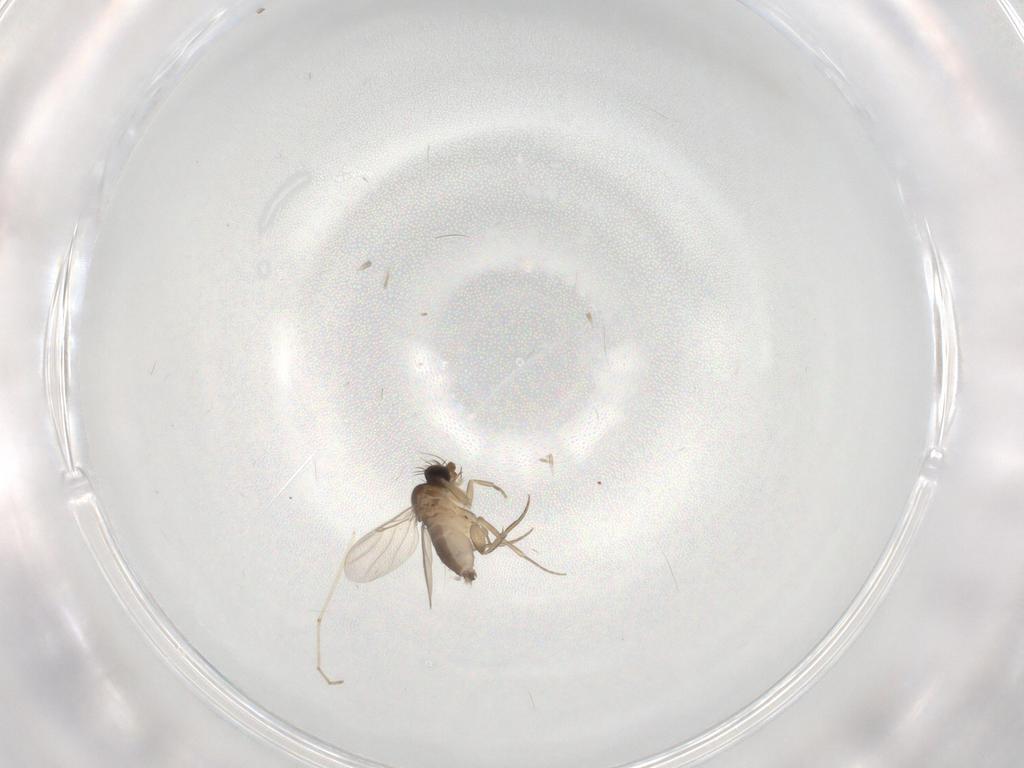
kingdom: Animalia
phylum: Arthropoda
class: Insecta
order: Diptera
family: Phoridae
